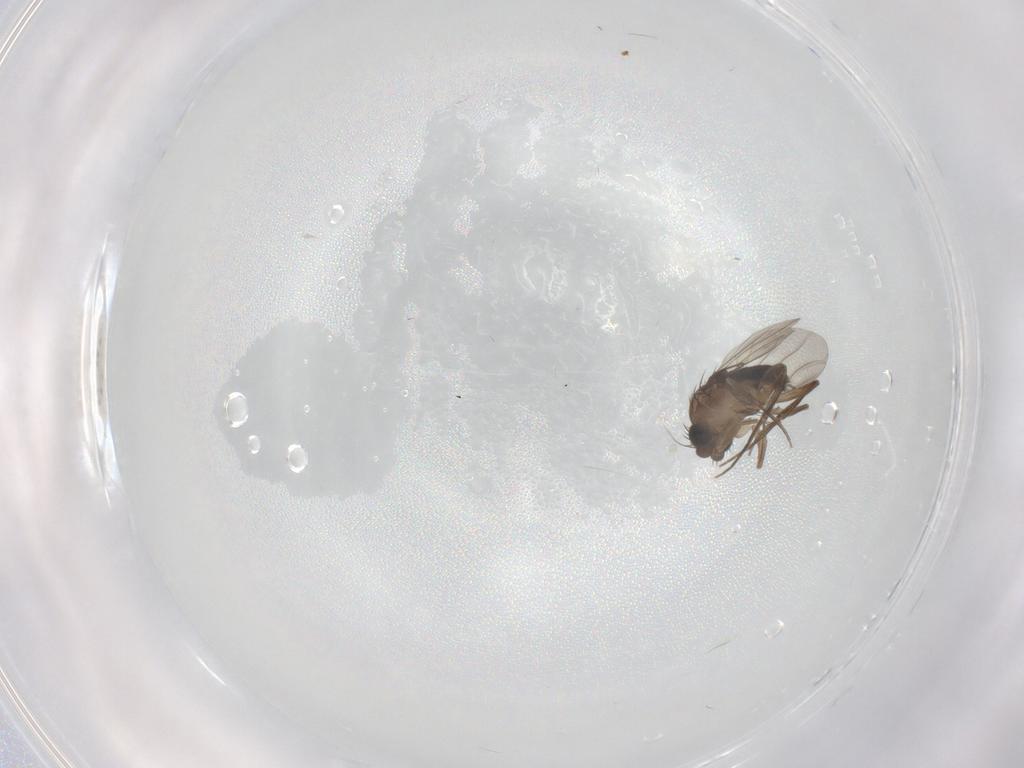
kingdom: Animalia
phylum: Arthropoda
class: Insecta
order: Diptera
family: Phoridae
